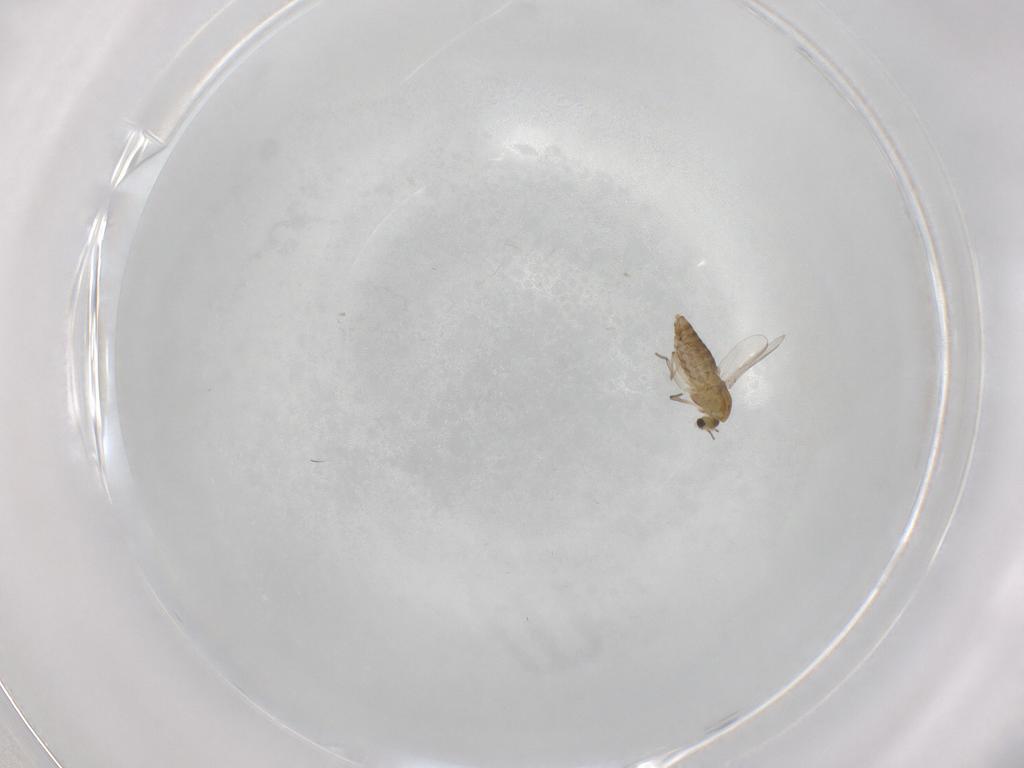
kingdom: Animalia
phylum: Arthropoda
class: Insecta
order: Diptera
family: Chironomidae
